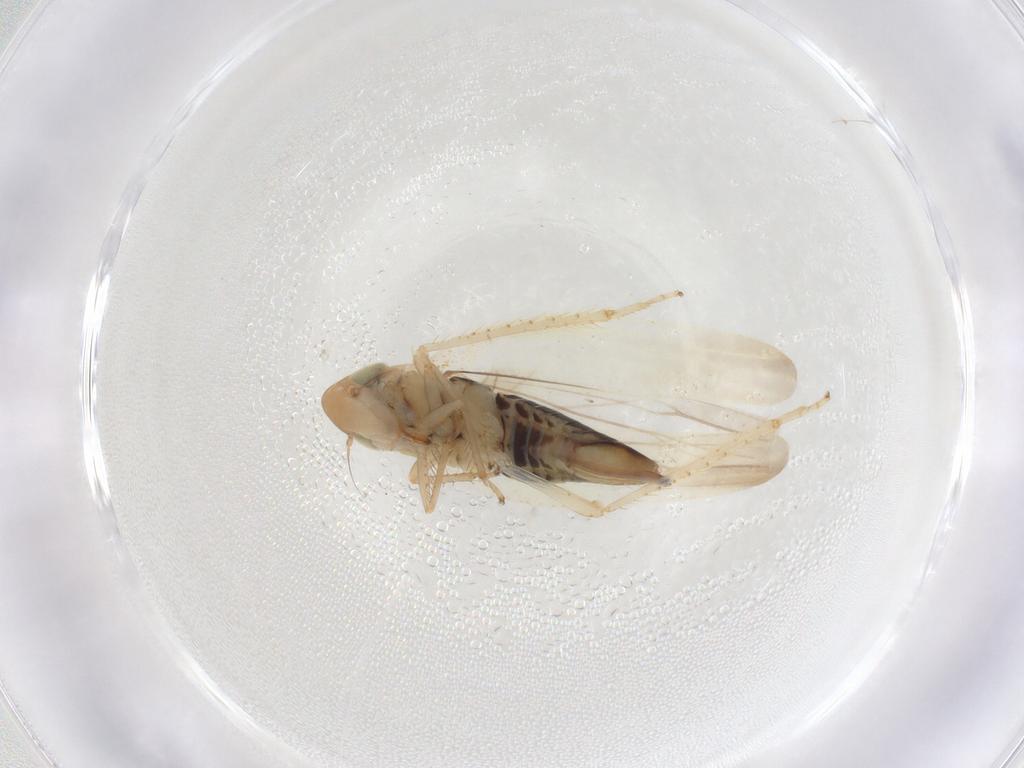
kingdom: Animalia
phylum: Arthropoda
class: Insecta
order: Hemiptera
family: Cicadellidae
